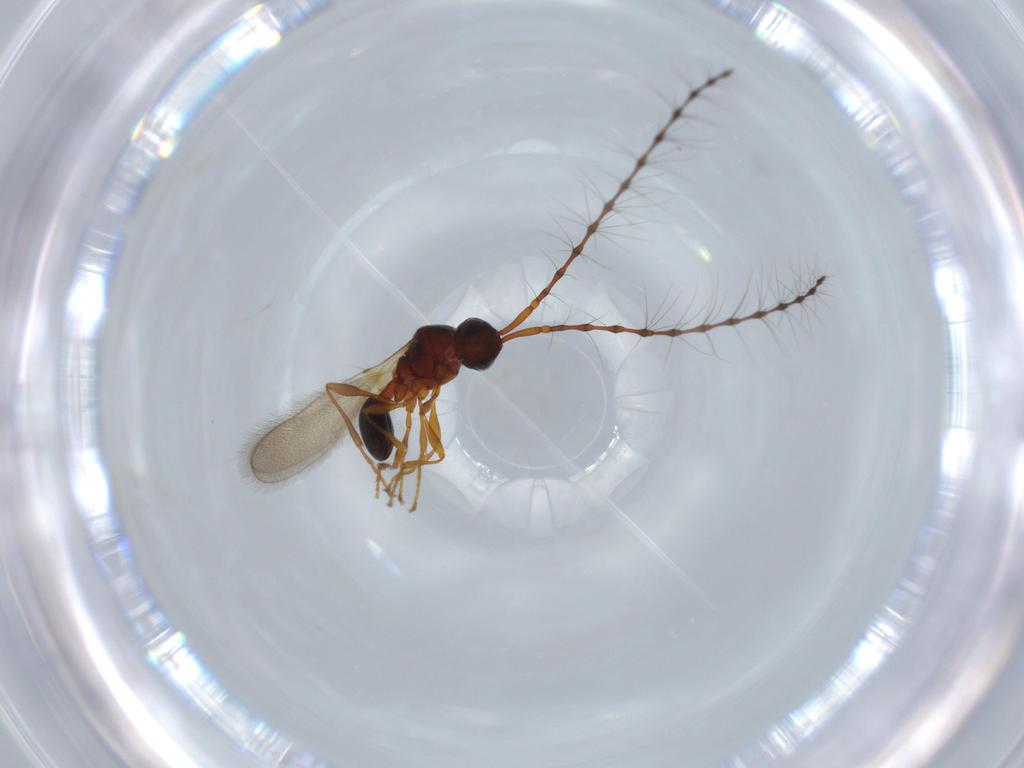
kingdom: Animalia
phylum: Arthropoda
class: Insecta
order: Hymenoptera
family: Diapriidae
